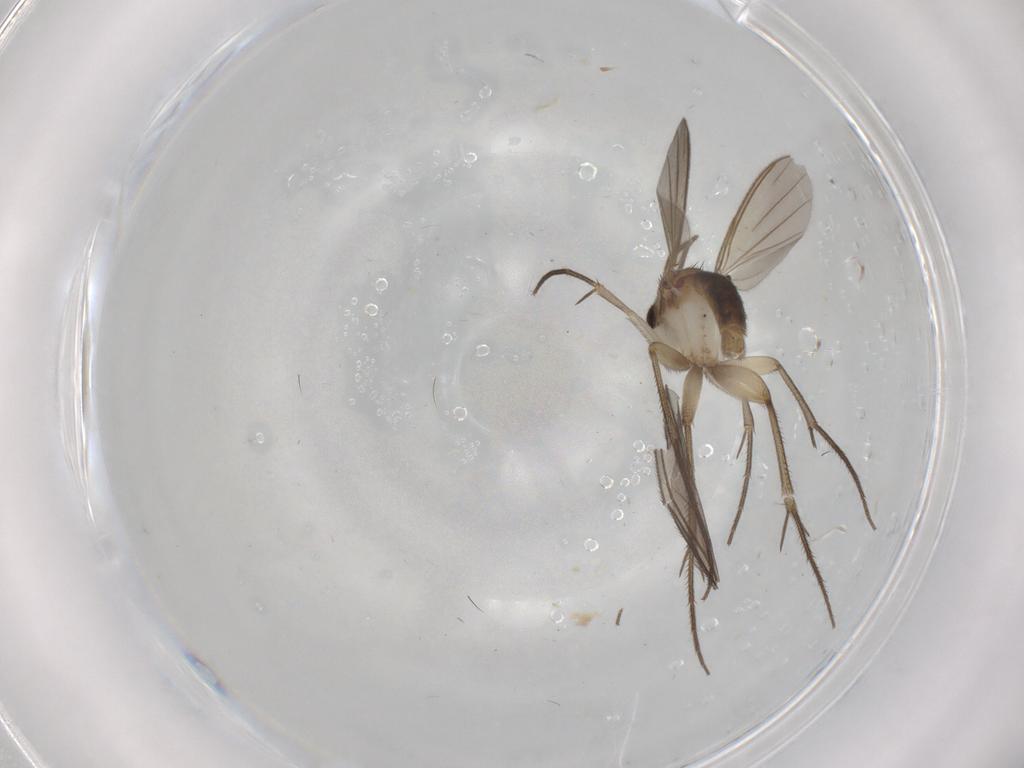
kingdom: Animalia
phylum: Arthropoda
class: Insecta
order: Diptera
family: Mycetophilidae
